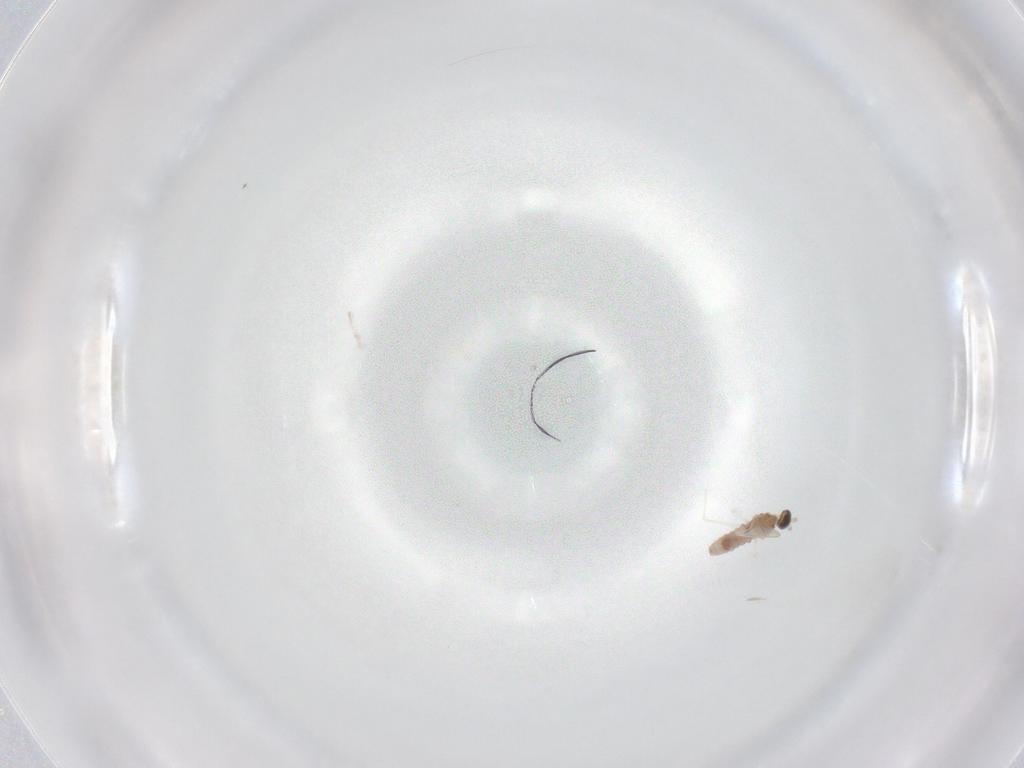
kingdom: Animalia
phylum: Arthropoda
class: Insecta
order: Diptera
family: Cecidomyiidae
